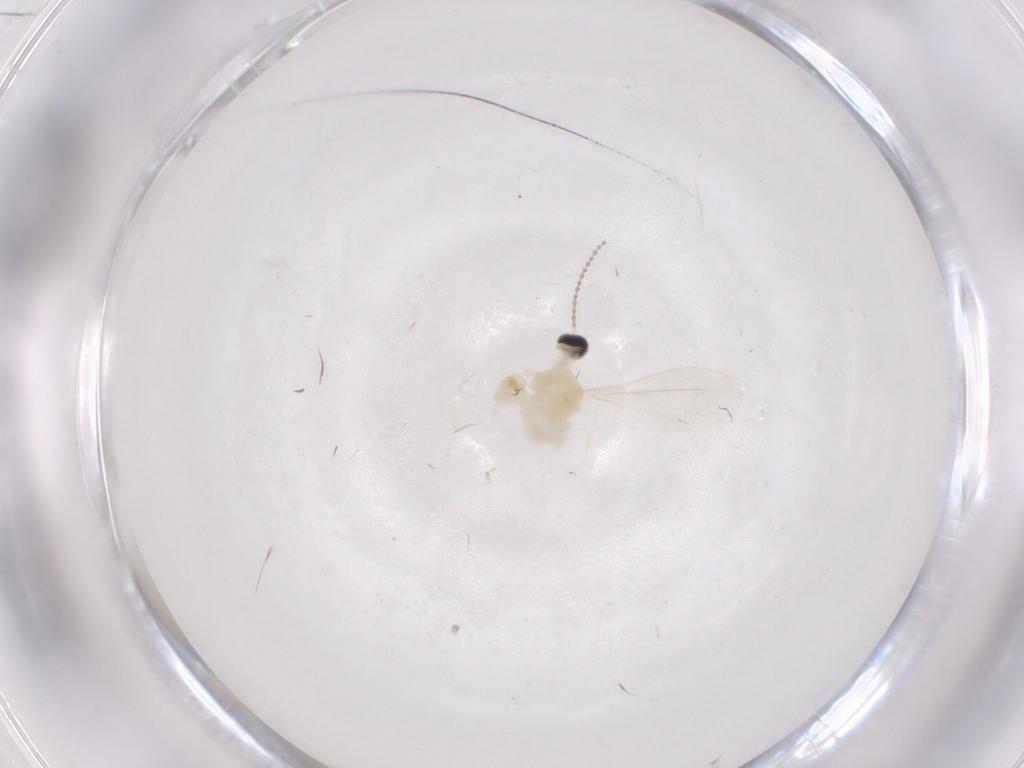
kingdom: Animalia
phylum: Arthropoda
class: Insecta
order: Diptera
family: Cecidomyiidae
